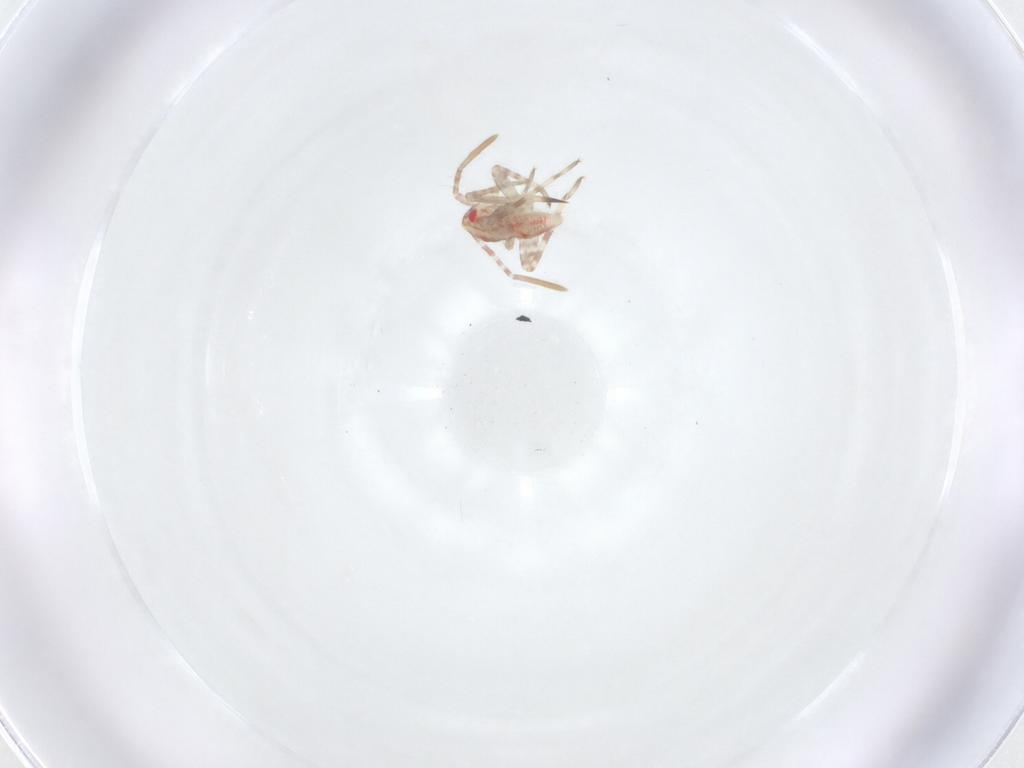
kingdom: Animalia
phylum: Arthropoda
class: Insecta
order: Hemiptera
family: Miridae
